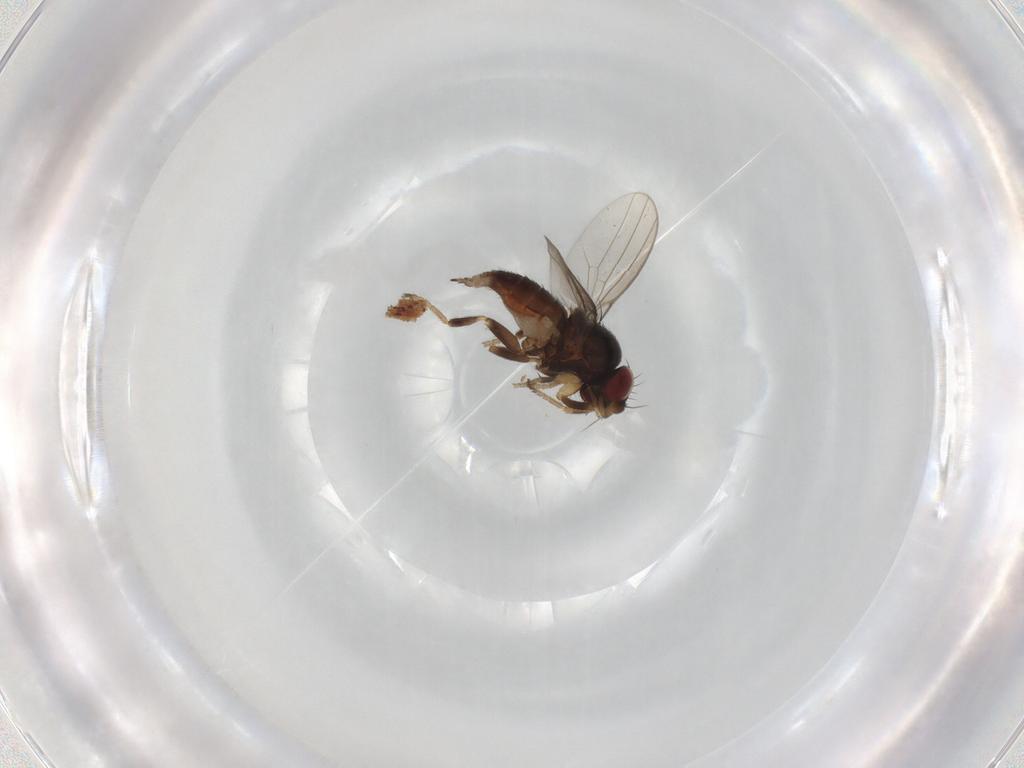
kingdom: Animalia
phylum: Arthropoda
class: Insecta
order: Diptera
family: Milichiidae
